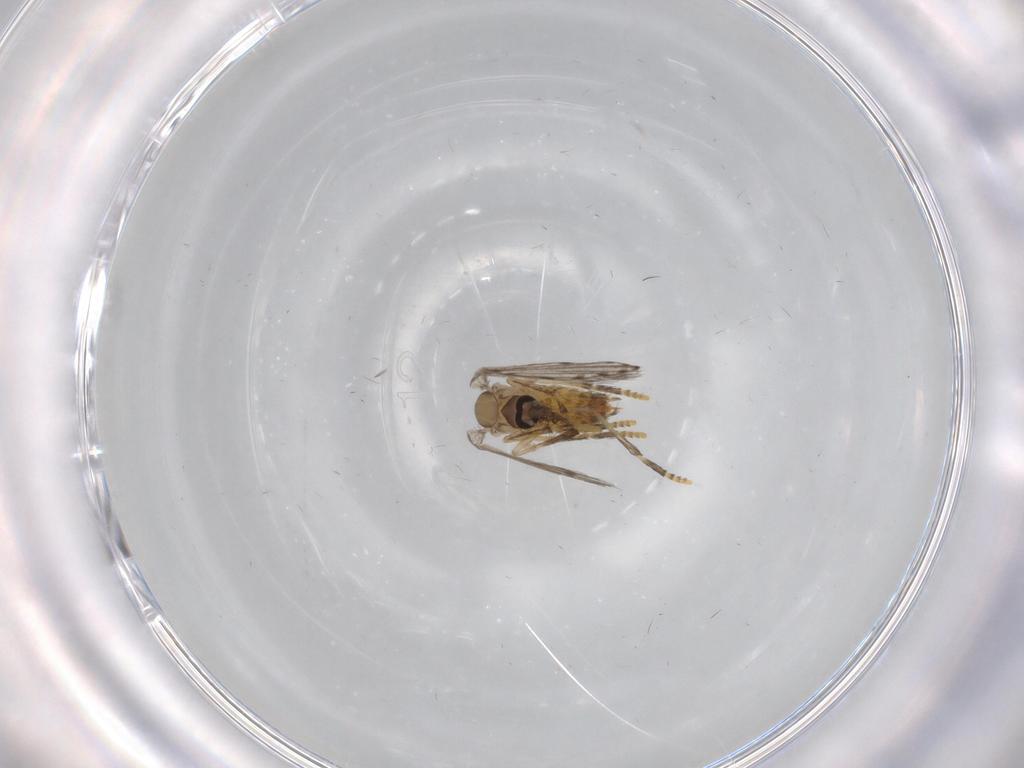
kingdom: Animalia
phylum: Arthropoda
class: Insecta
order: Diptera
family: Psychodidae
